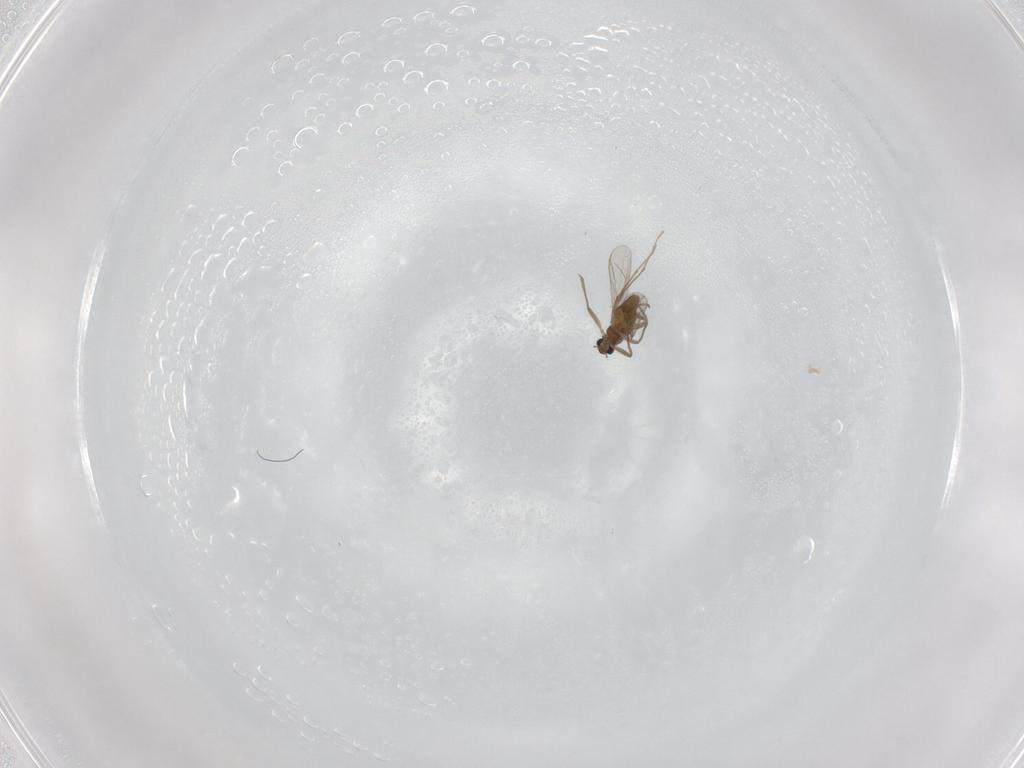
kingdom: Animalia
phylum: Arthropoda
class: Insecta
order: Diptera
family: Chironomidae
